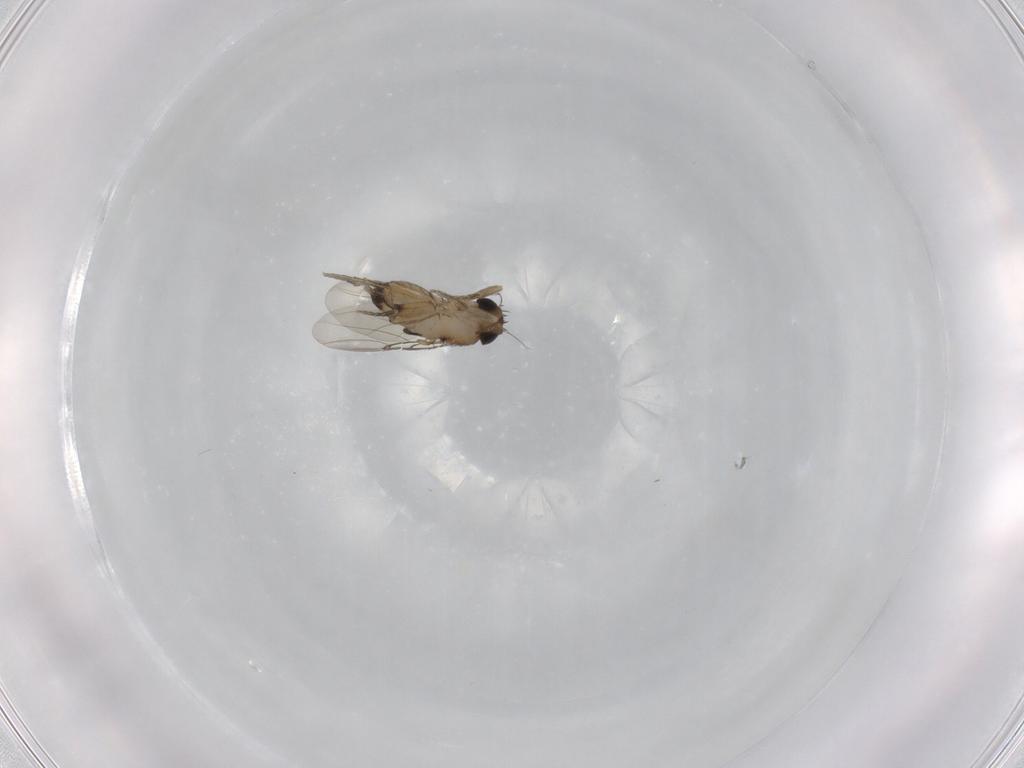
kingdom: Animalia
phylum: Arthropoda
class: Insecta
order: Diptera
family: Phoridae
